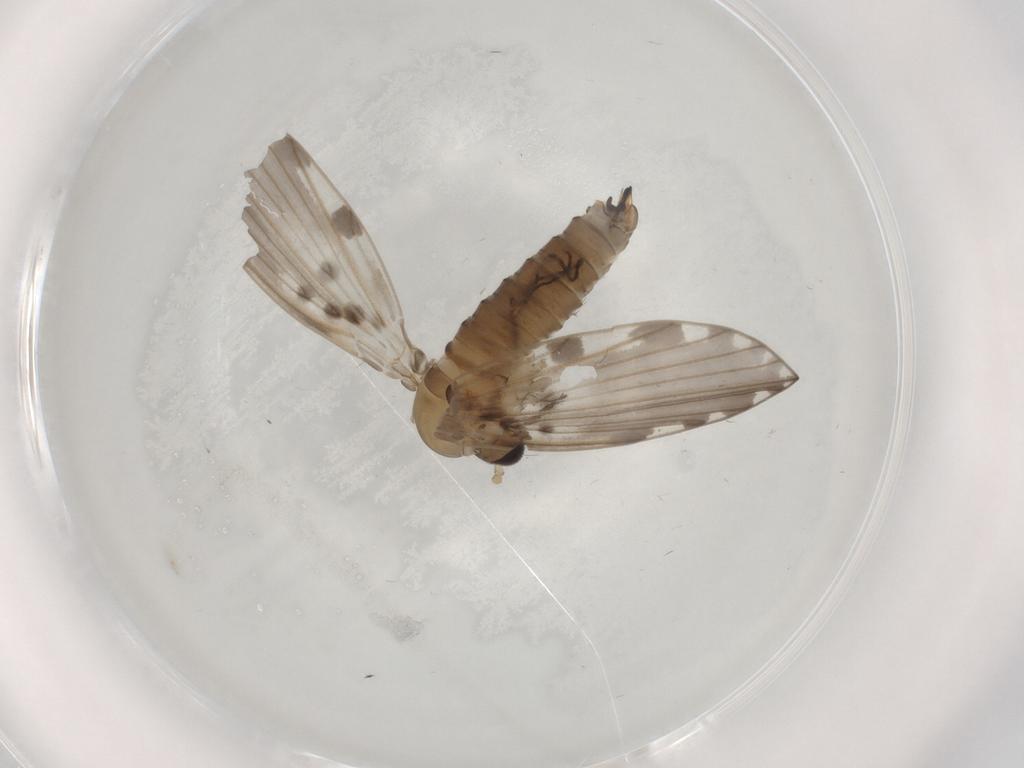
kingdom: Animalia
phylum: Arthropoda
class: Insecta
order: Diptera
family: Psychodidae
